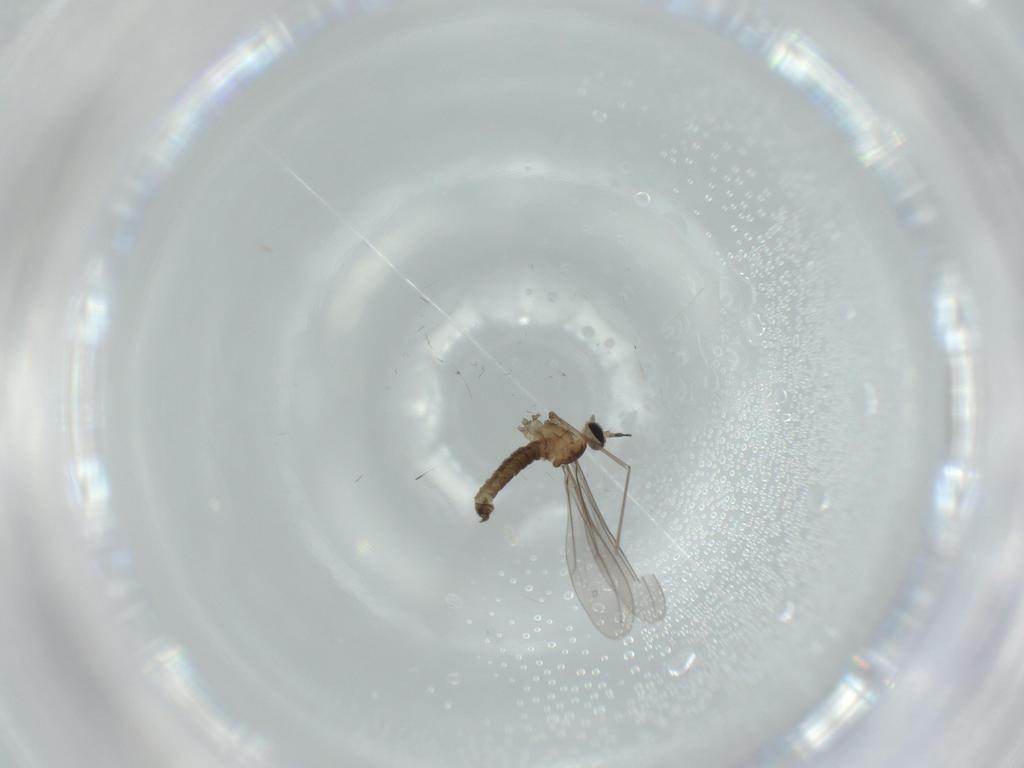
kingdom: Animalia
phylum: Arthropoda
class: Insecta
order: Diptera
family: Cecidomyiidae
